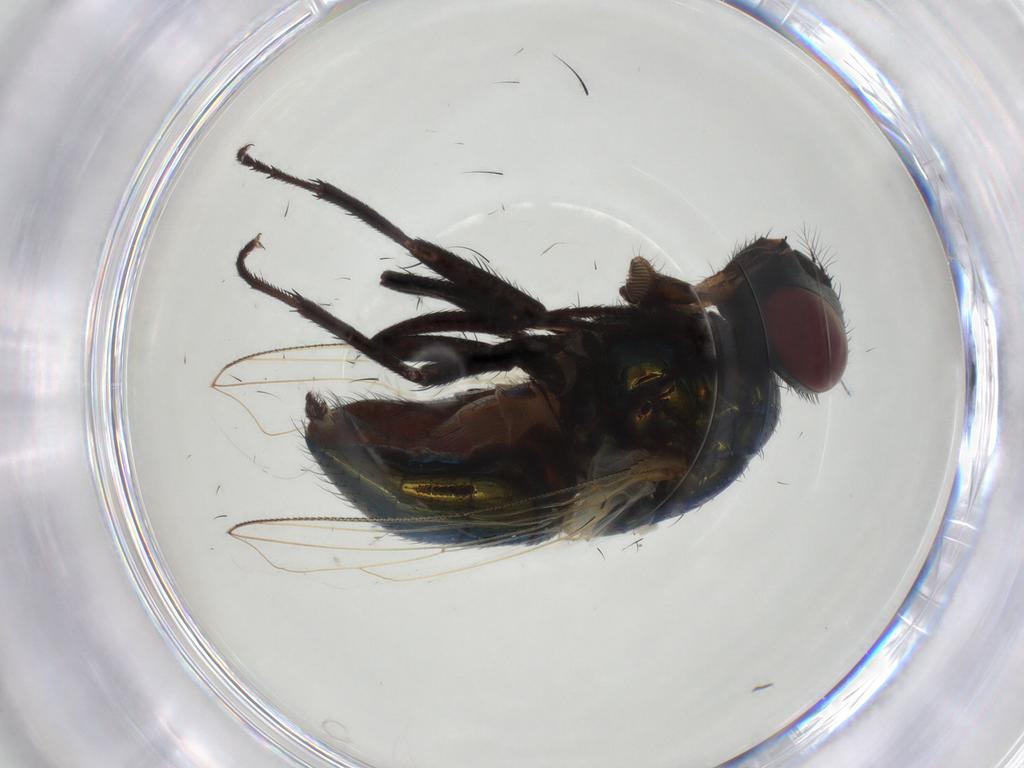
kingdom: Animalia
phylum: Arthropoda
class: Insecta
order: Diptera
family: Muscidae
